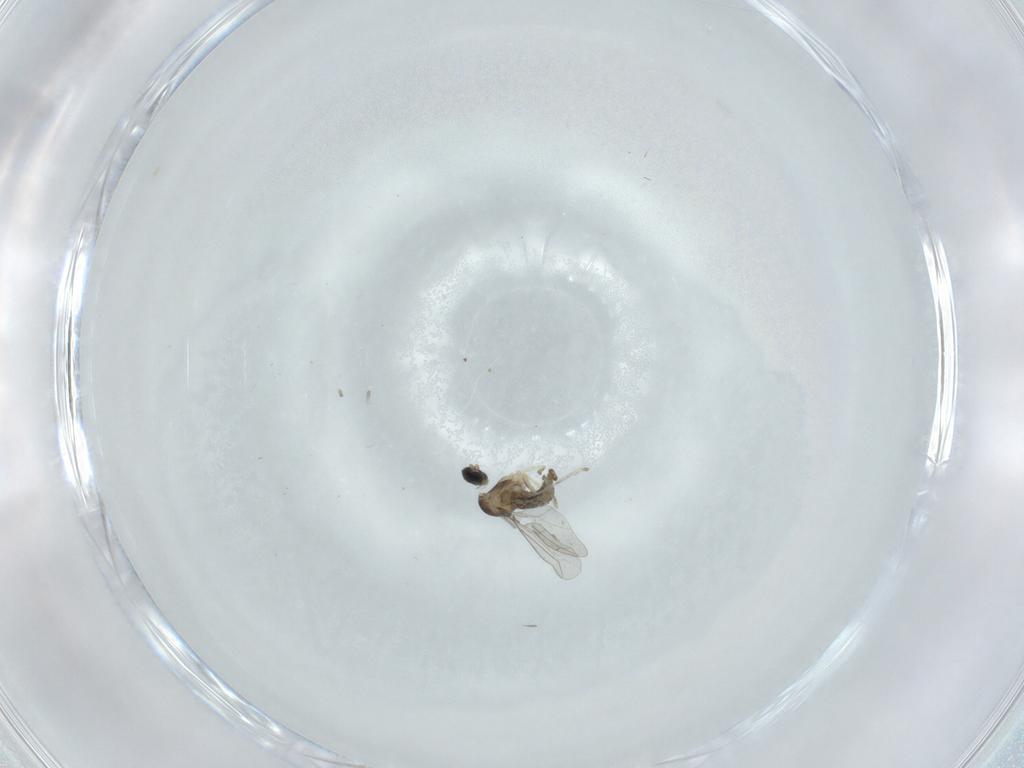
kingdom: Animalia
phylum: Arthropoda
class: Insecta
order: Diptera
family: Cecidomyiidae
